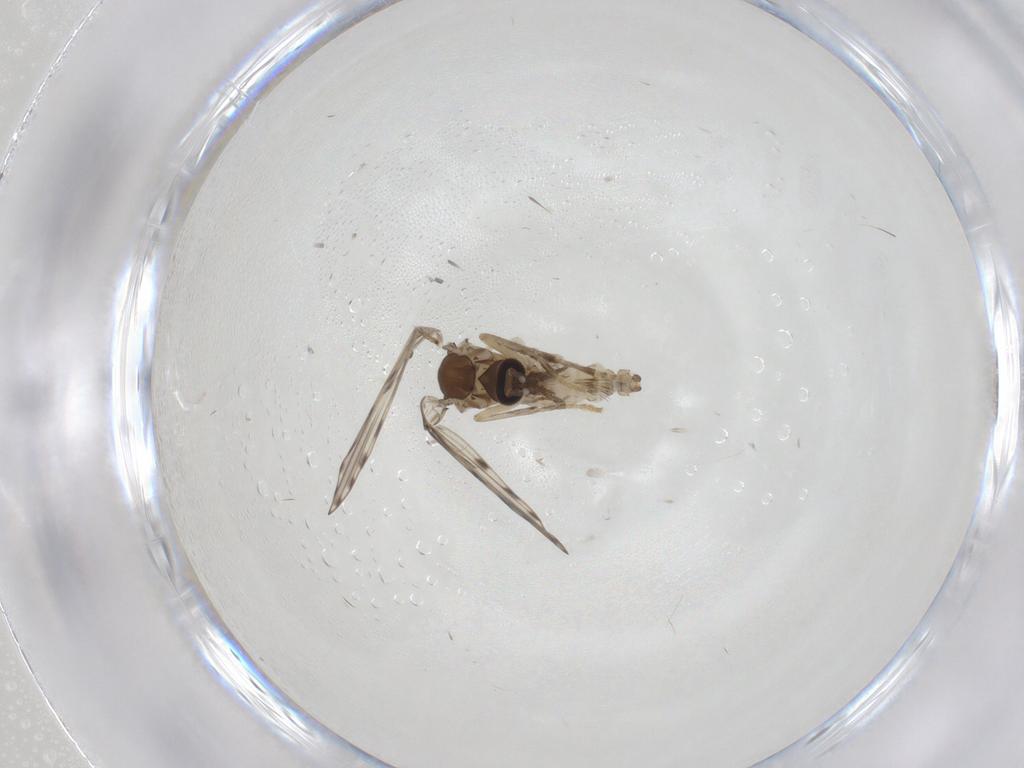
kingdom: Animalia
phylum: Arthropoda
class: Insecta
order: Diptera
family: Psychodidae
